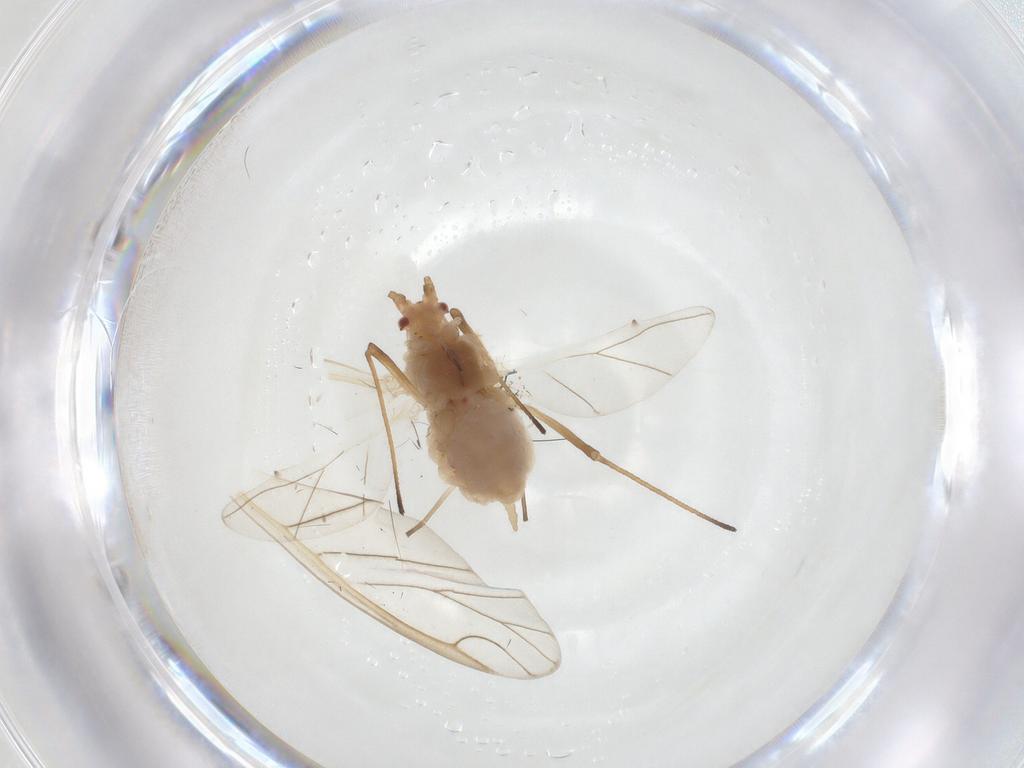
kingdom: Animalia
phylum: Arthropoda
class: Insecta
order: Hemiptera
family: Aphididae
